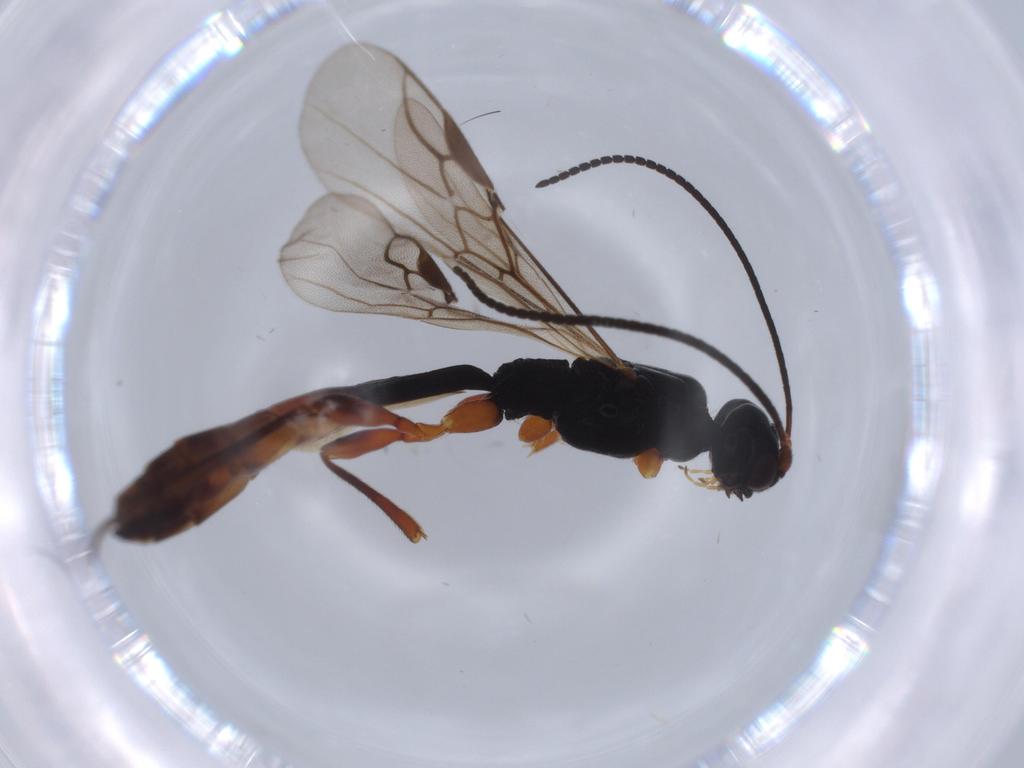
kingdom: Animalia
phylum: Arthropoda
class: Insecta
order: Hymenoptera
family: Braconidae
